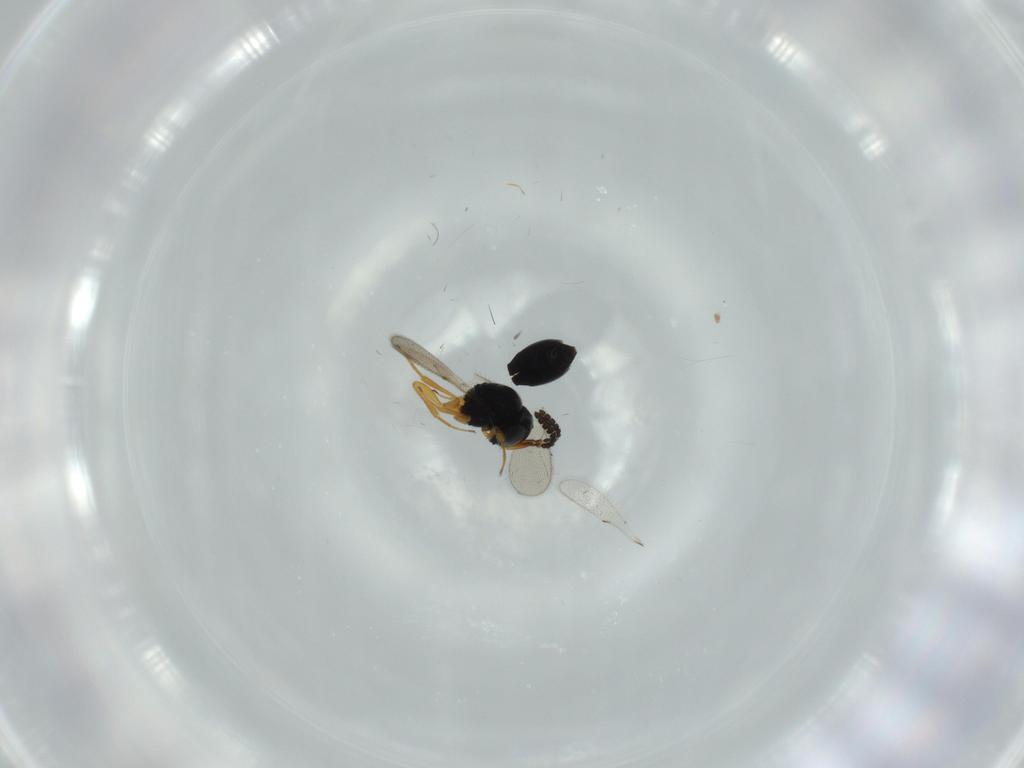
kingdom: Animalia
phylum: Arthropoda
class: Insecta
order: Hymenoptera
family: Scelionidae
